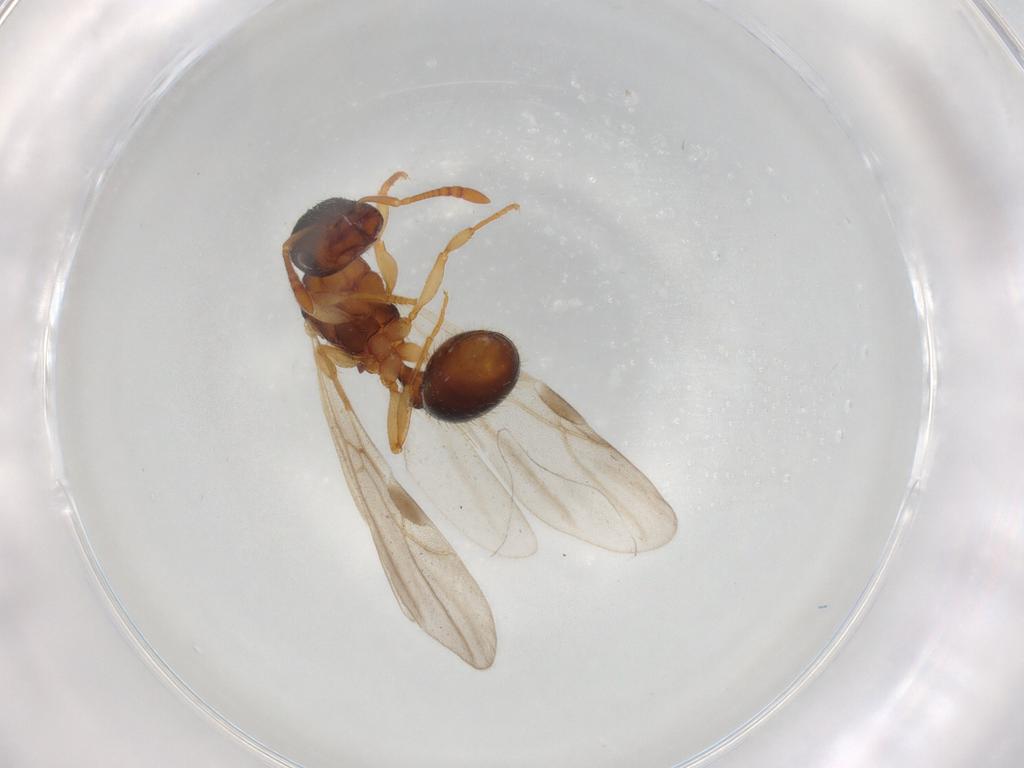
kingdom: Animalia
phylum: Arthropoda
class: Insecta
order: Hymenoptera
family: Formicidae
